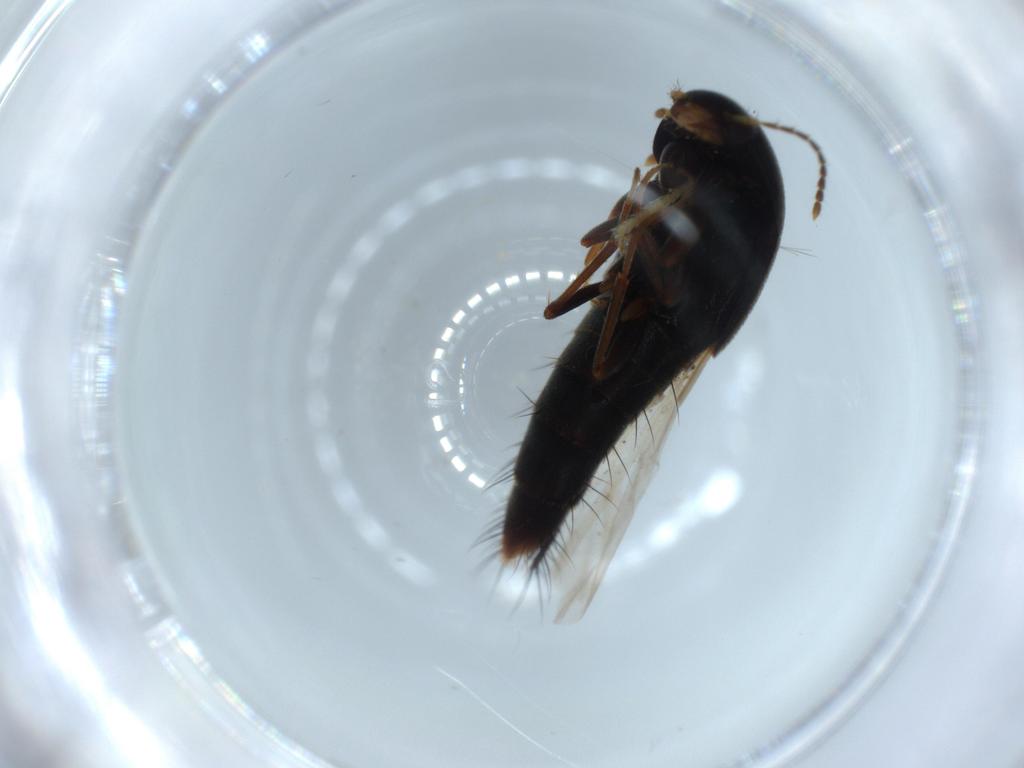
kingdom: Animalia
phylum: Arthropoda
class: Insecta
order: Coleoptera
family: Staphylinidae
